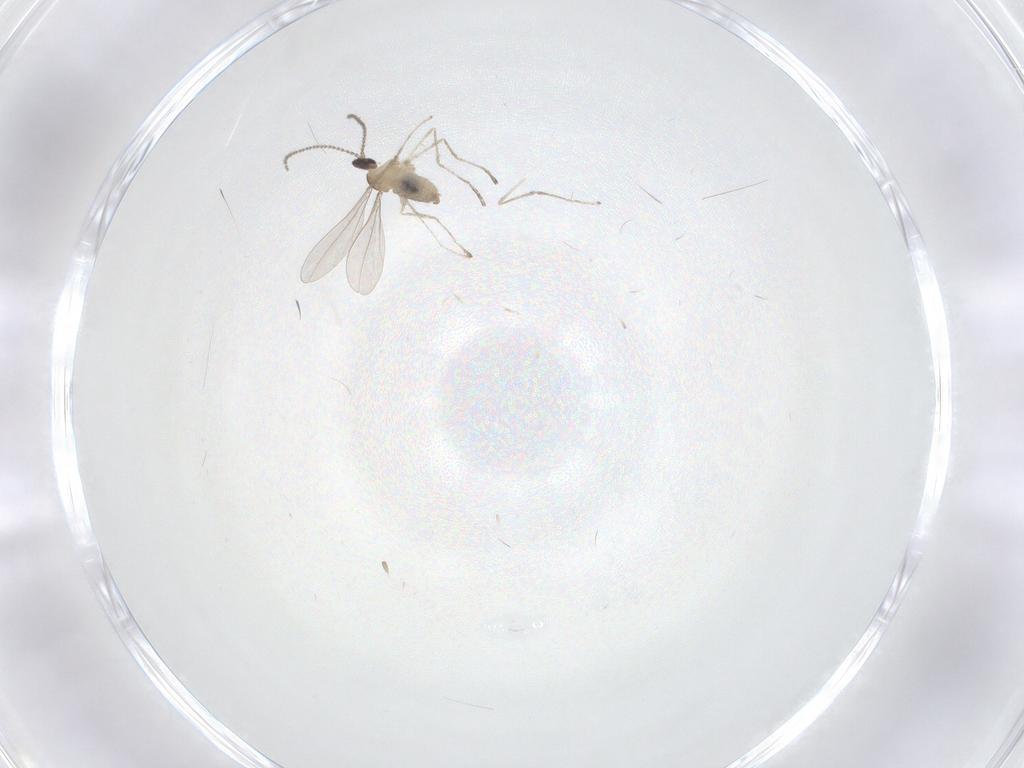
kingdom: Animalia
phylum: Arthropoda
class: Insecta
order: Diptera
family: Cecidomyiidae
